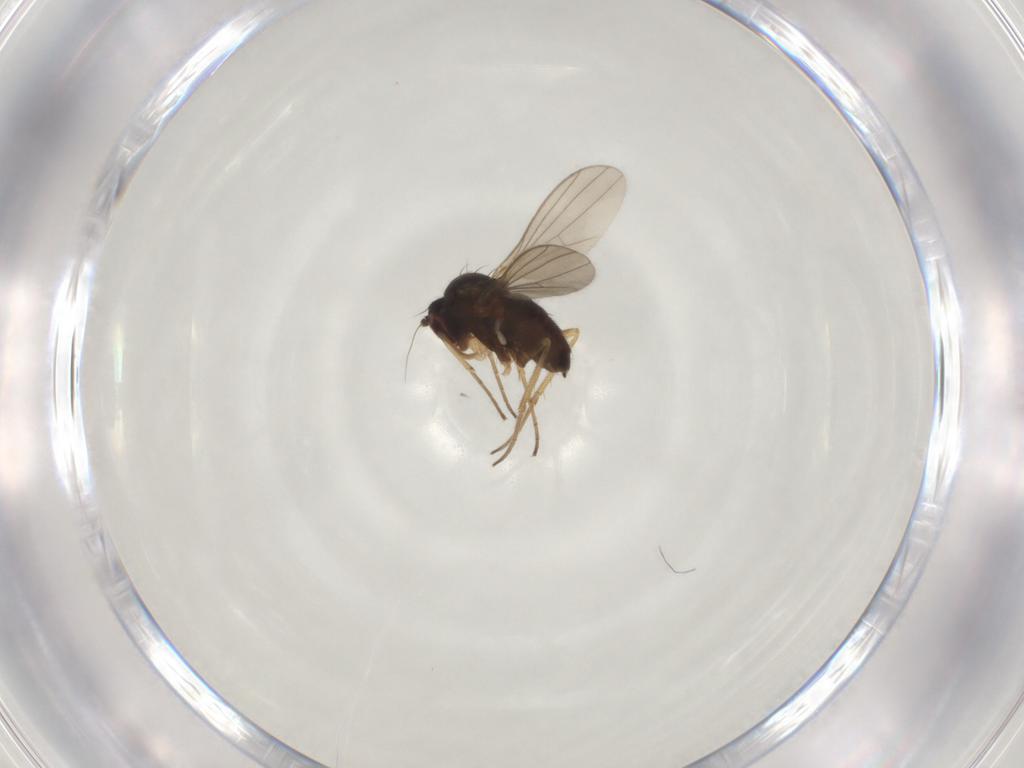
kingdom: Animalia
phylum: Arthropoda
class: Insecta
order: Diptera
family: Dolichopodidae
